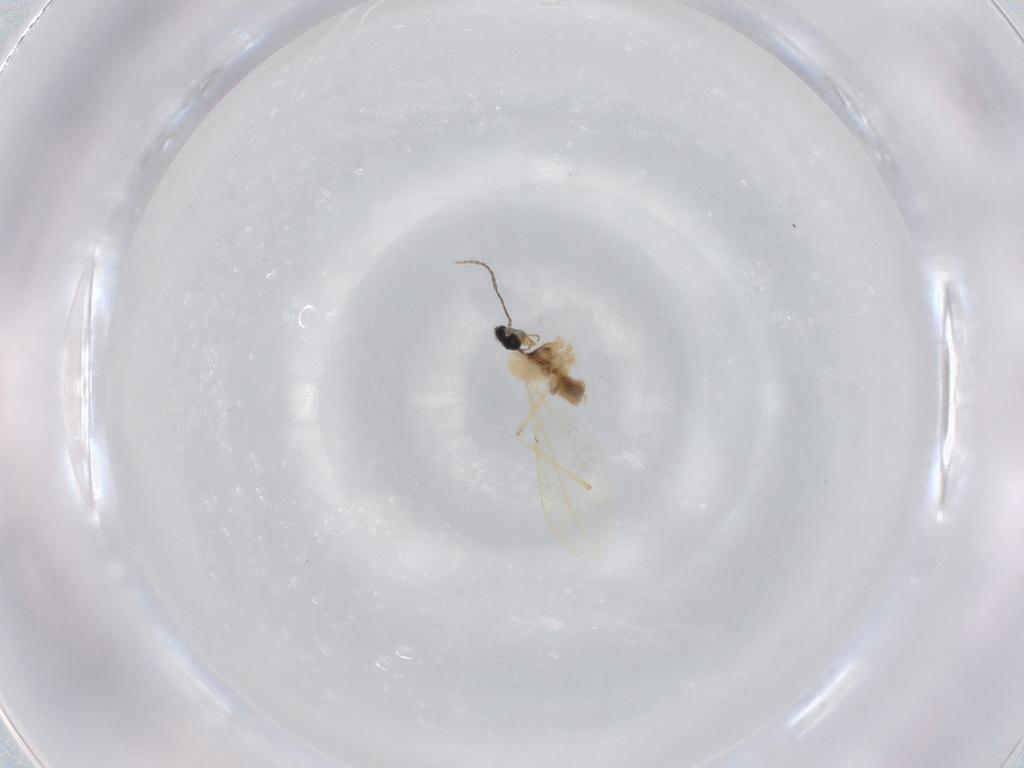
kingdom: Animalia
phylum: Arthropoda
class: Insecta
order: Diptera
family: Cecidomyiidae
